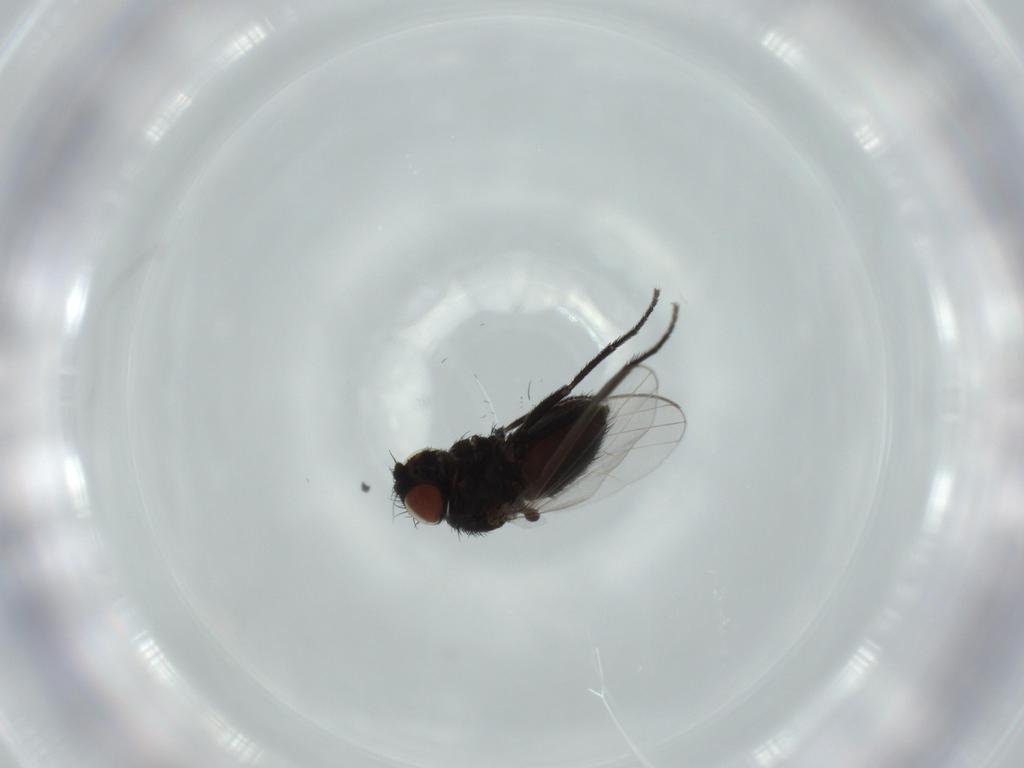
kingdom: Animalia
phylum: Arthropoda
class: Insecta
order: Diptera
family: Milichiidae
